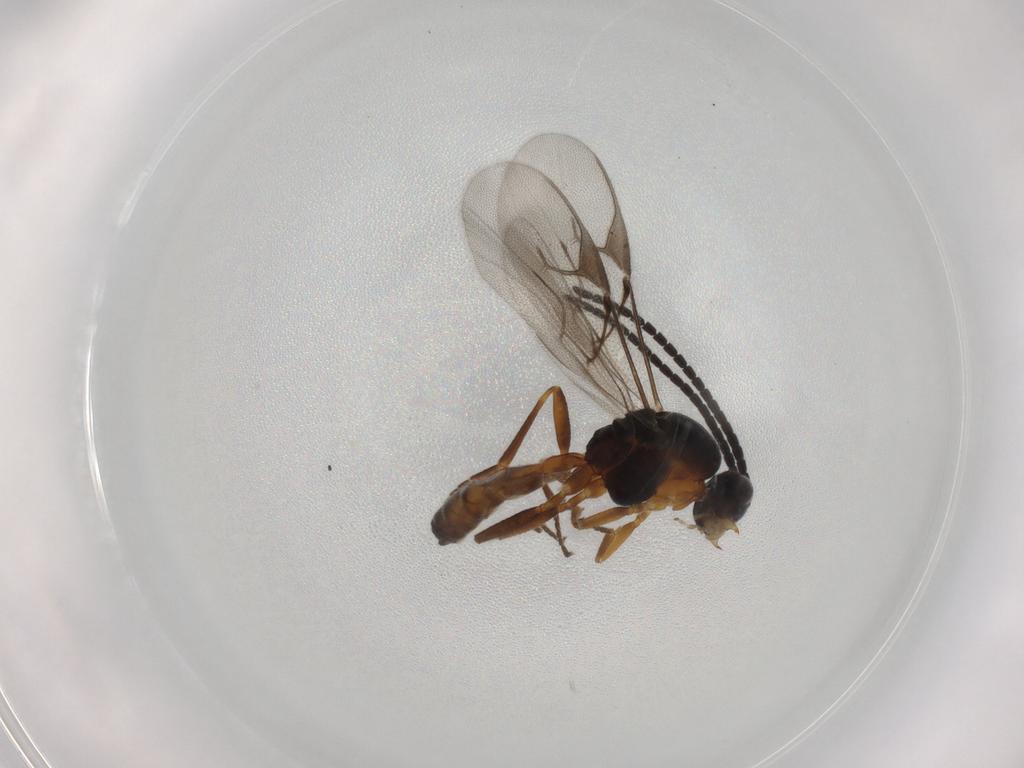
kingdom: Animalia
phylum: Arthropoda
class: Insecta
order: Hymenoptera
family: Braconidae
